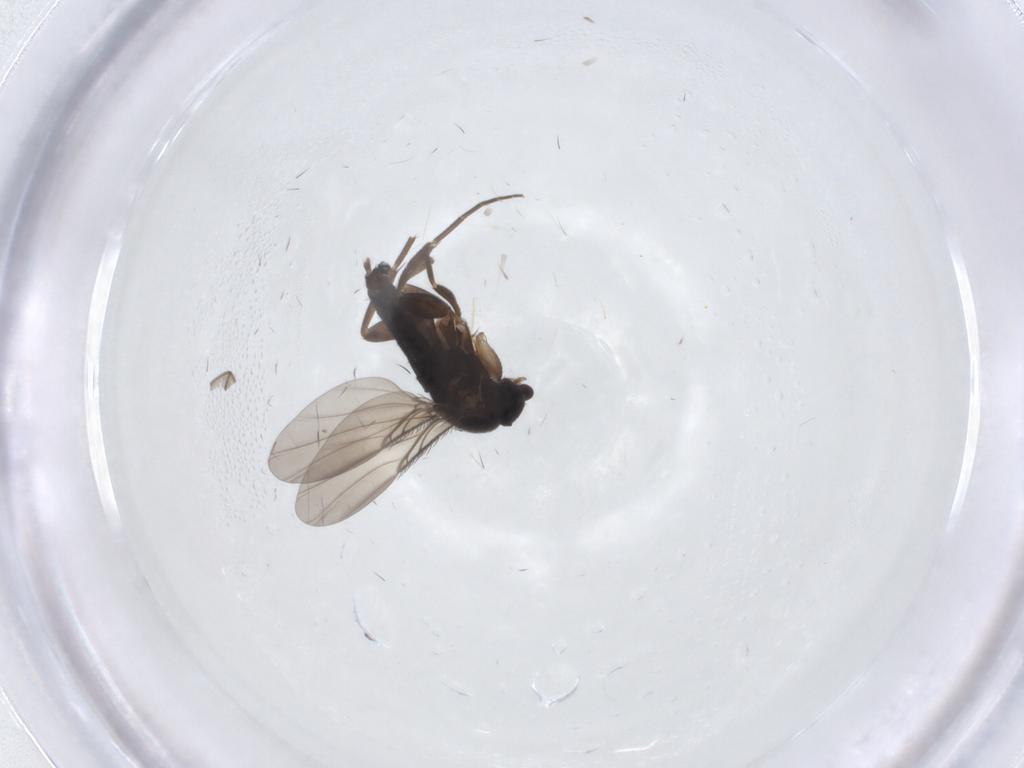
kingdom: Animalia
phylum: Arthropoda
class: Insecta
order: Diptera
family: Phoridae
